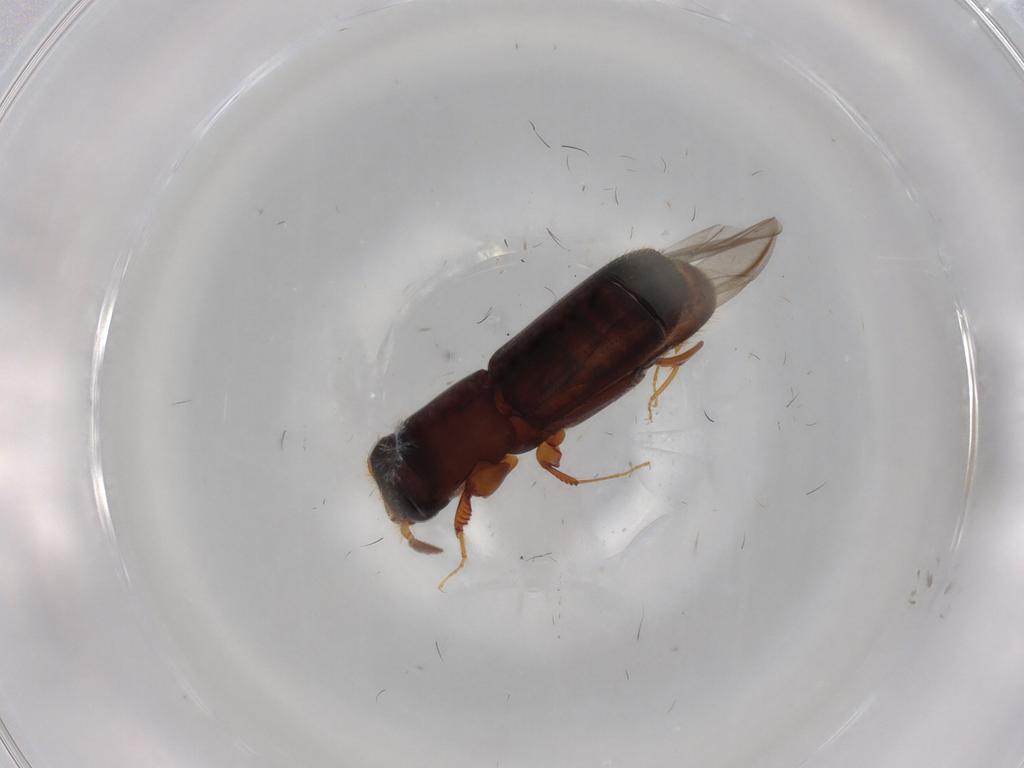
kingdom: Animalia
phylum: Arthropoda
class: Insecta
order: Coleoptera
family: Curculionidae
